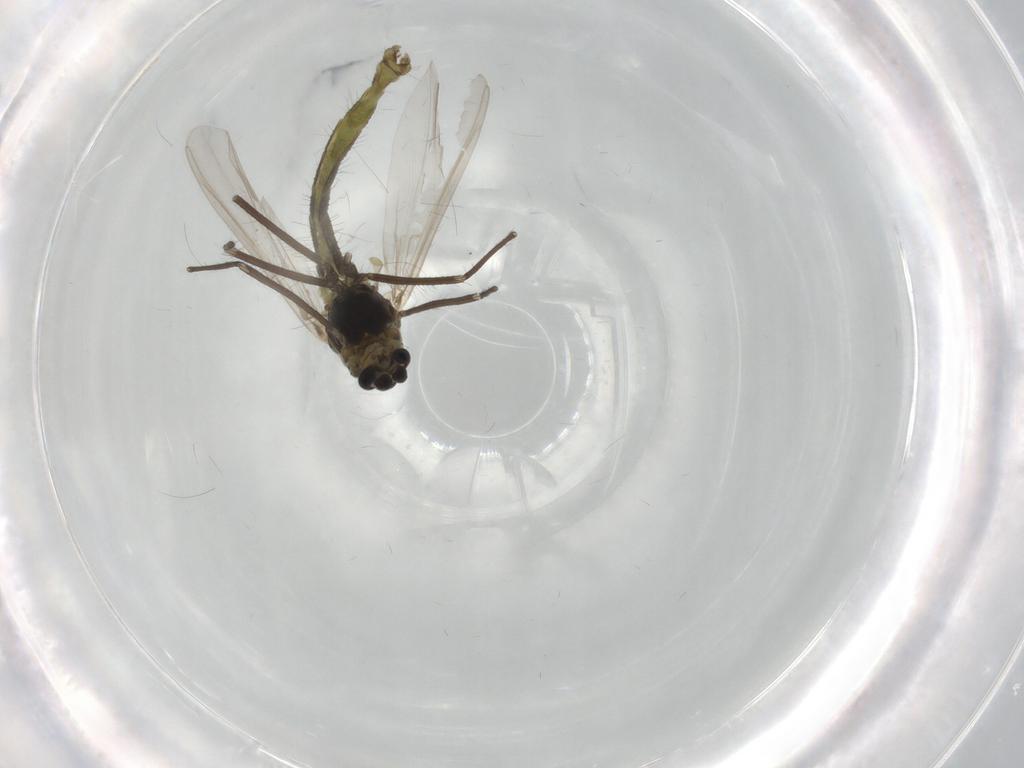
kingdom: Animalia
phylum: Arthropoda
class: Insecta
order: Diptera
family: Chironomidae
